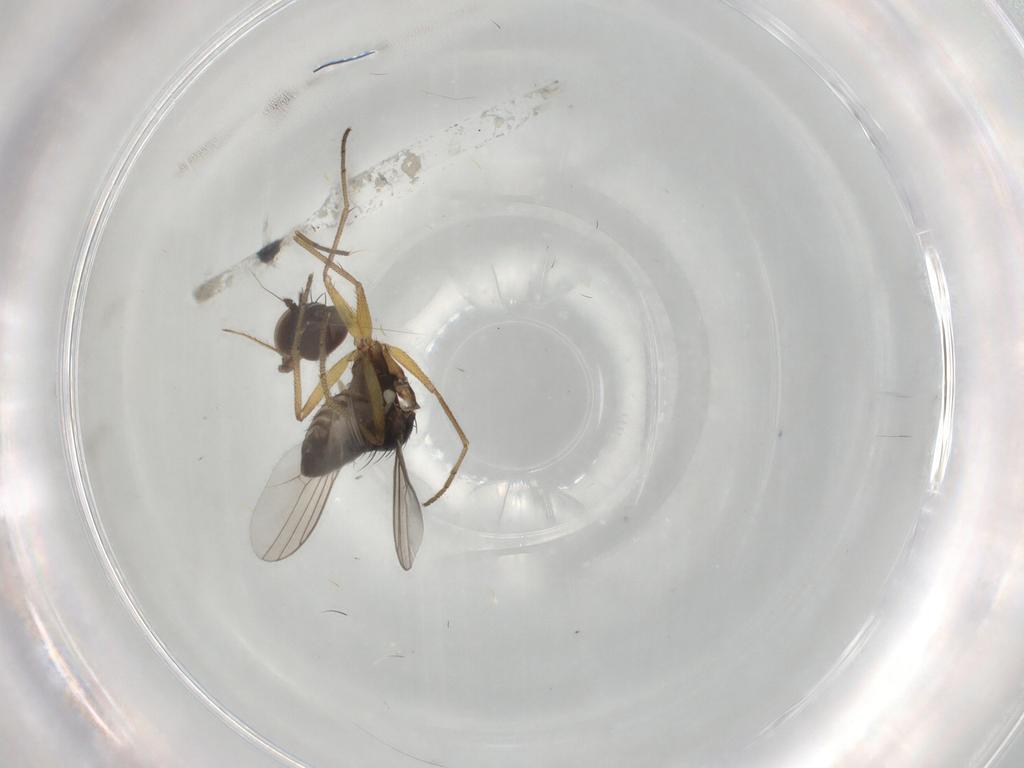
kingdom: Animalia
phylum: Arthropoda
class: Insecta
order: Diptera
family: Dolichopodidae
